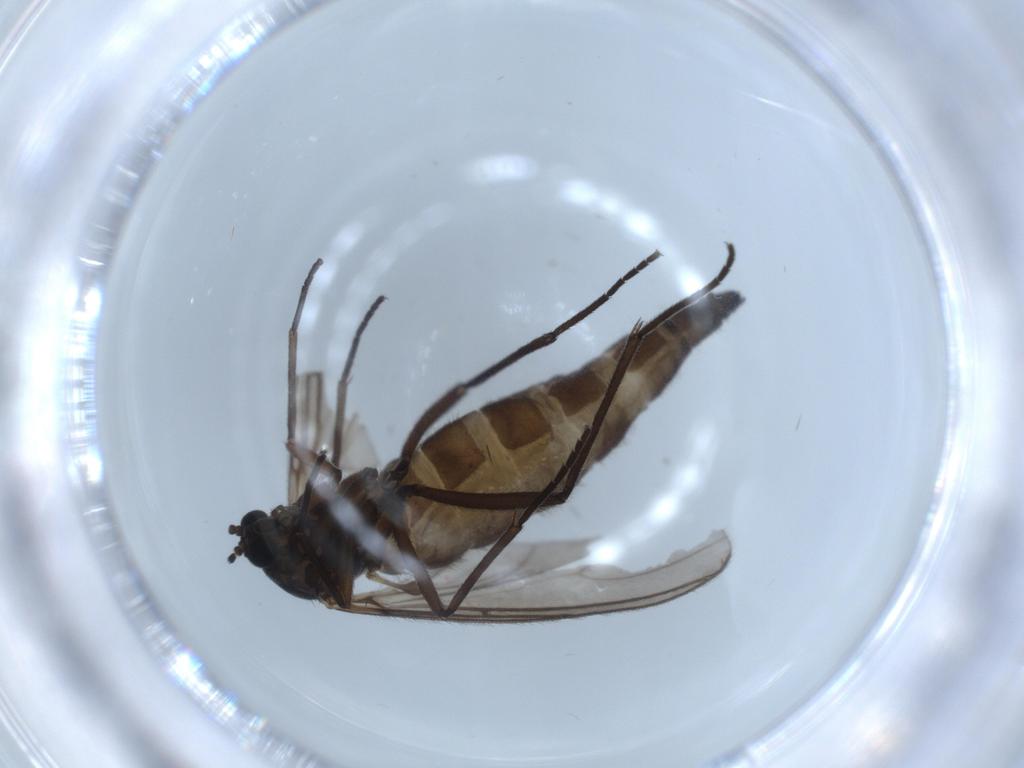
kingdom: Animalia
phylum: Arthropoda
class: Insecta
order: Diptera
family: Sciaridae
